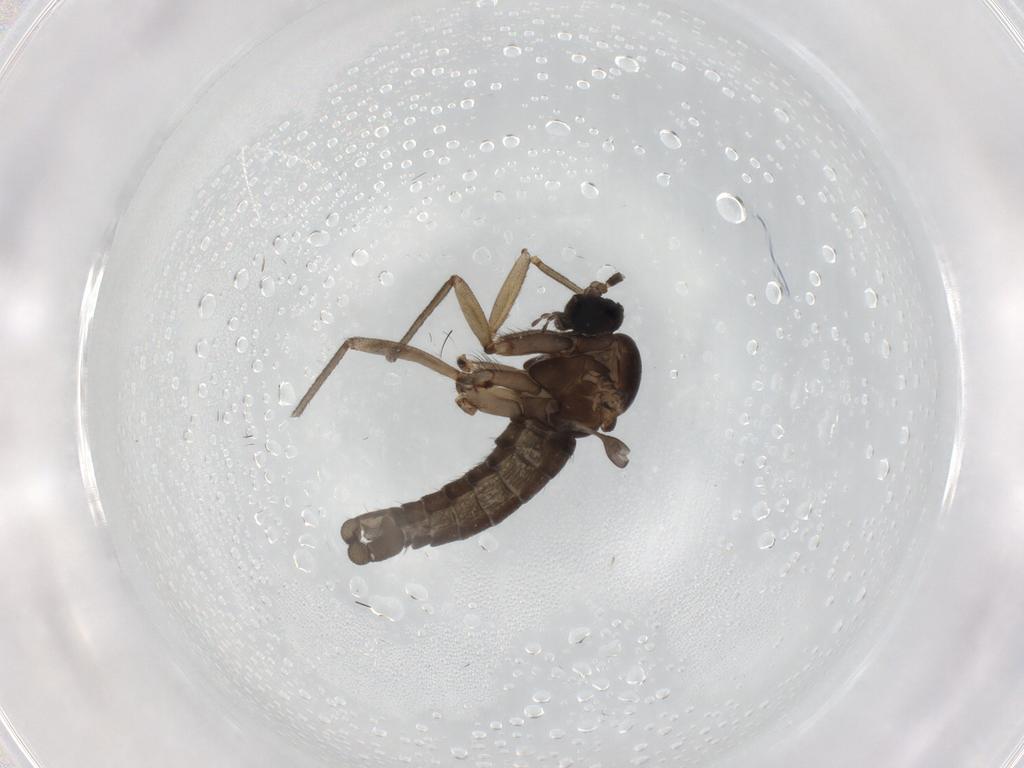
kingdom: Animalia
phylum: Arthropoda
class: Insecta
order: Diptera
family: Sciaridae
